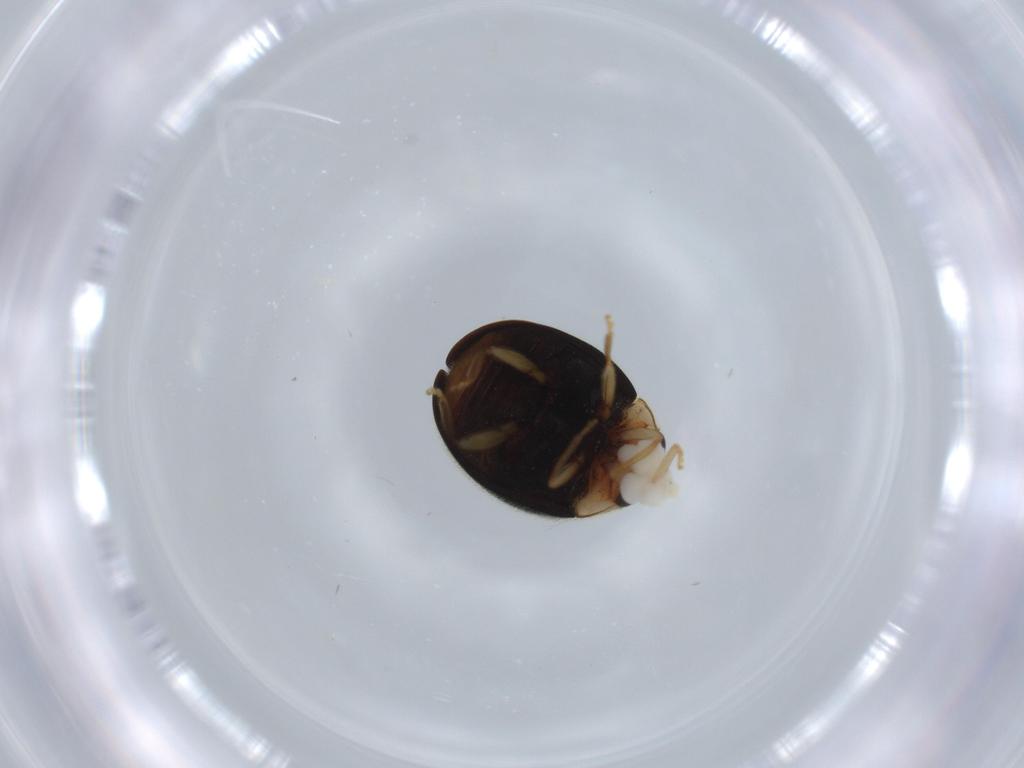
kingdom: Animalia
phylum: Arthropoda
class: Insecta
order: Coleoptera
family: Coccinellidae
